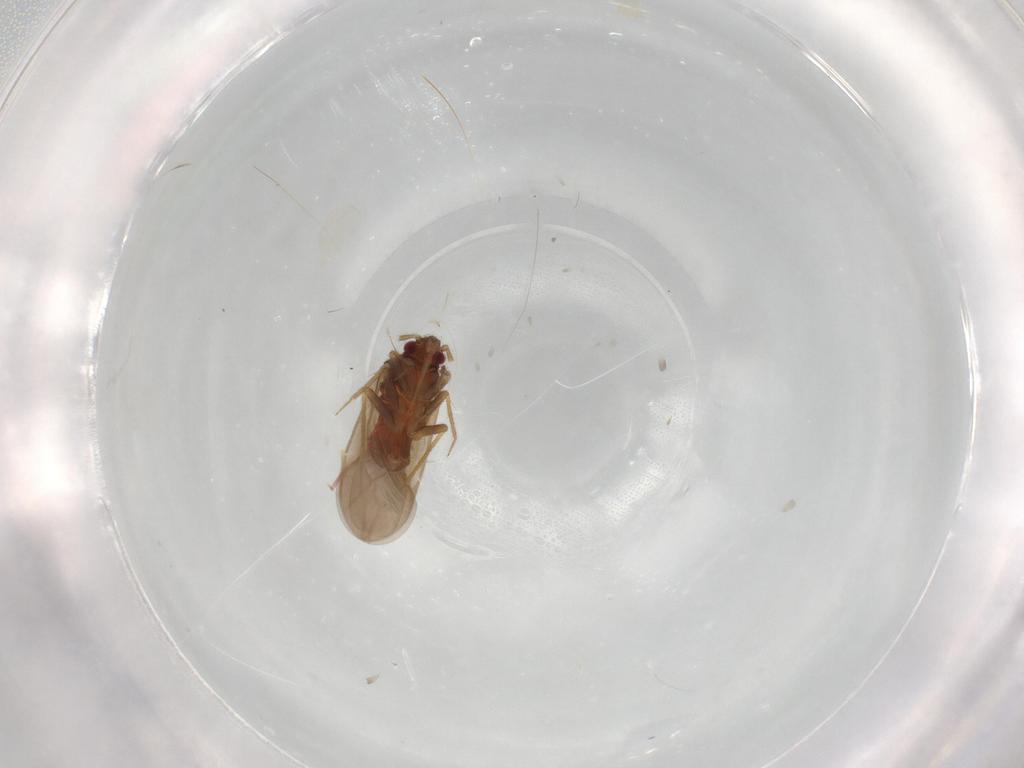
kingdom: Animalia
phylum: Arthropoda
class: Insecta
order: Hemiptera
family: Ceratocombidae
